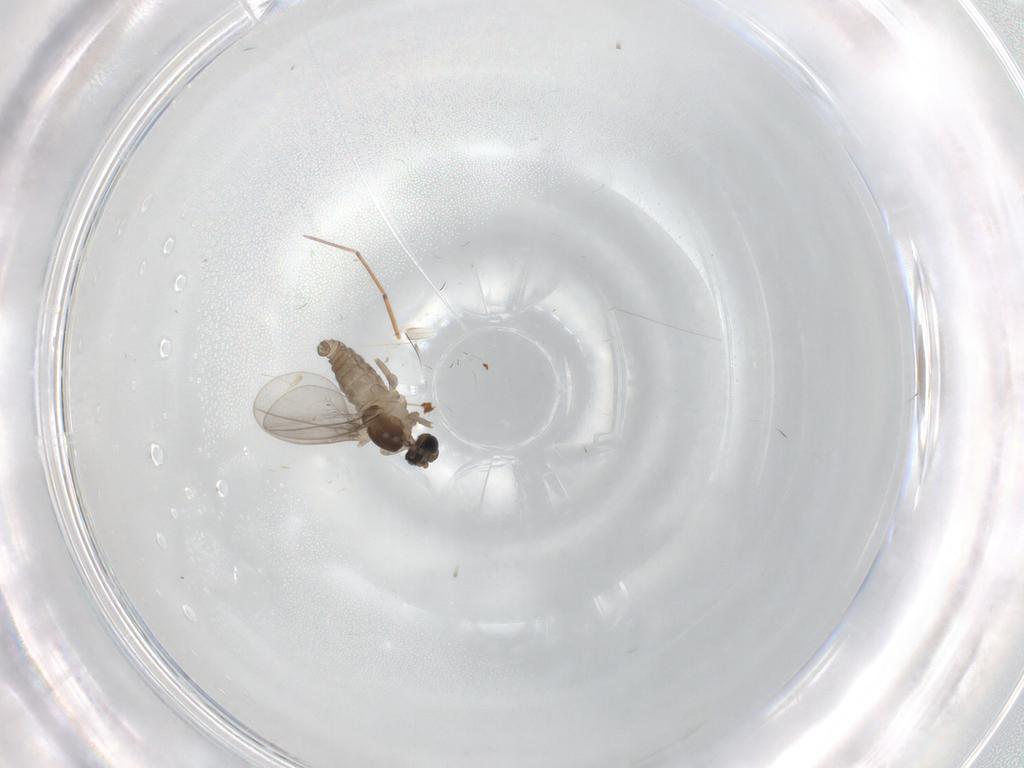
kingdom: Animalia
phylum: Arthropoda
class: Insecta
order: Diptera
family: Cecidomyiidae
